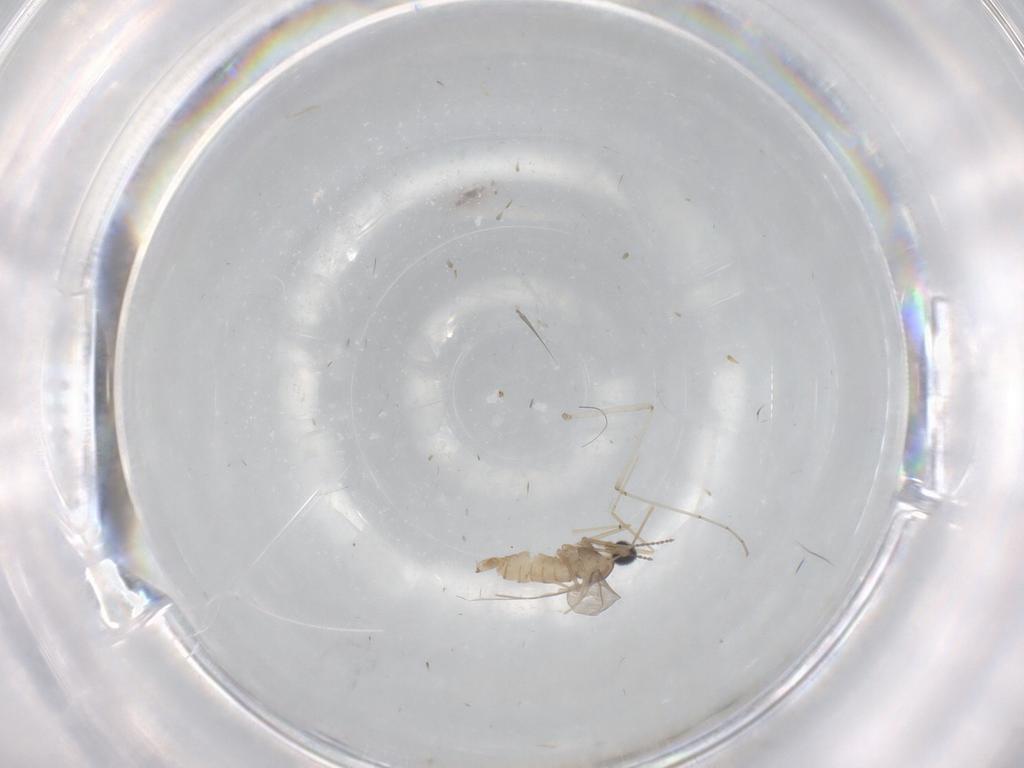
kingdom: Animalia
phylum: Arthropoda
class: Insecta
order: Diptera
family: Cecidomyiidae
